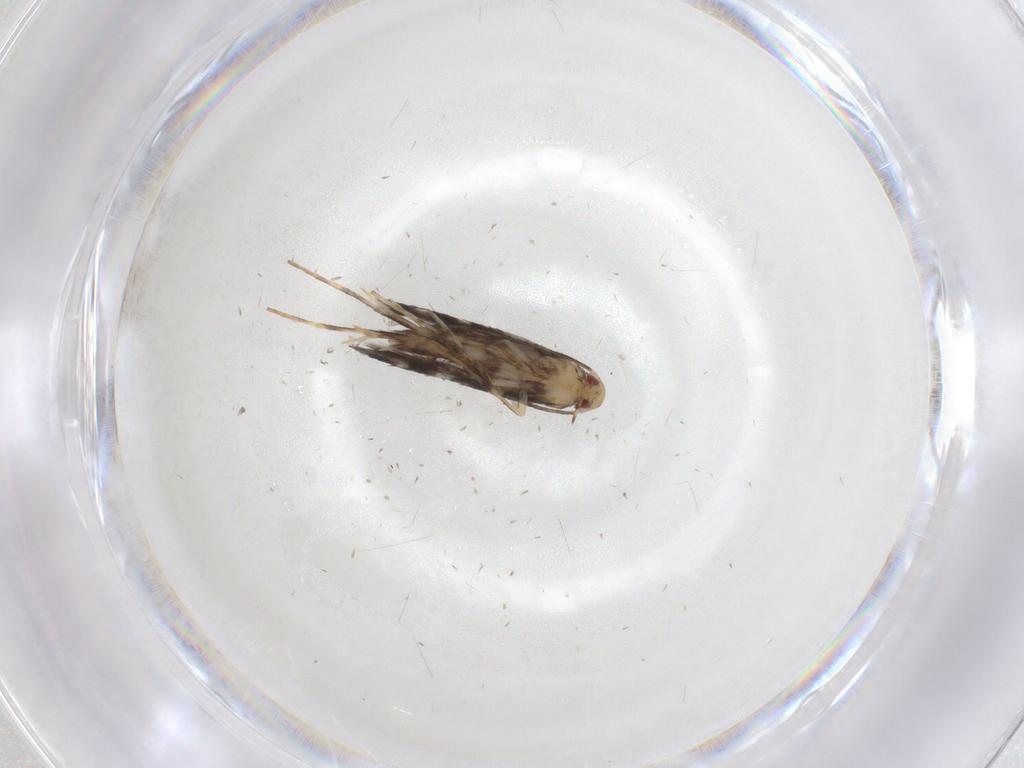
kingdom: Animalia
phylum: Arthropoda
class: Insecta
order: Lepidoptera
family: Gracillariidae
